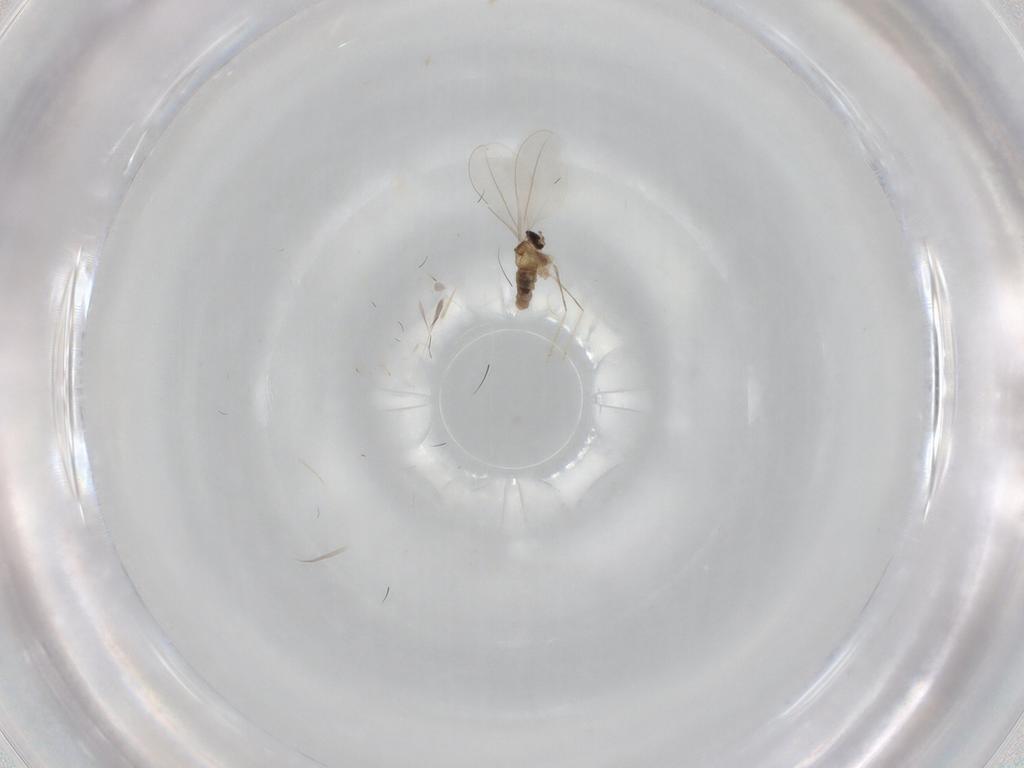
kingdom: Animalia
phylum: Arthropoda
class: Insecta
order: Diptera
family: Cecidomyiidae
